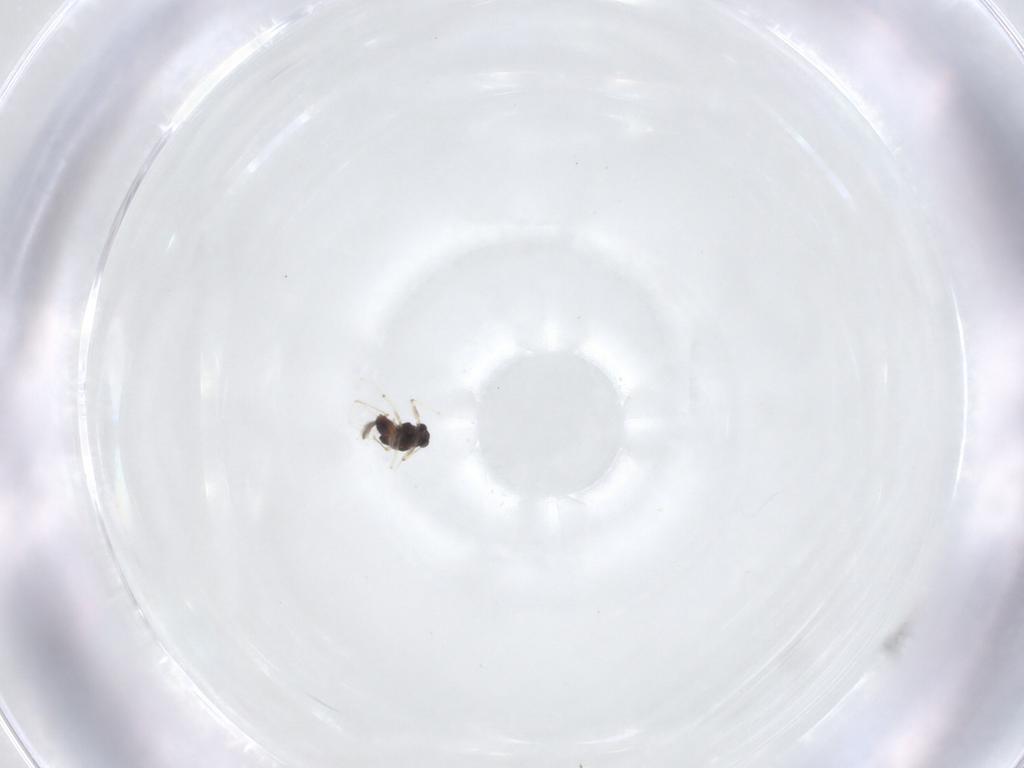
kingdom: Animalia
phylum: Arthropoda
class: Insecta
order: Diptera
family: Chironomidae
